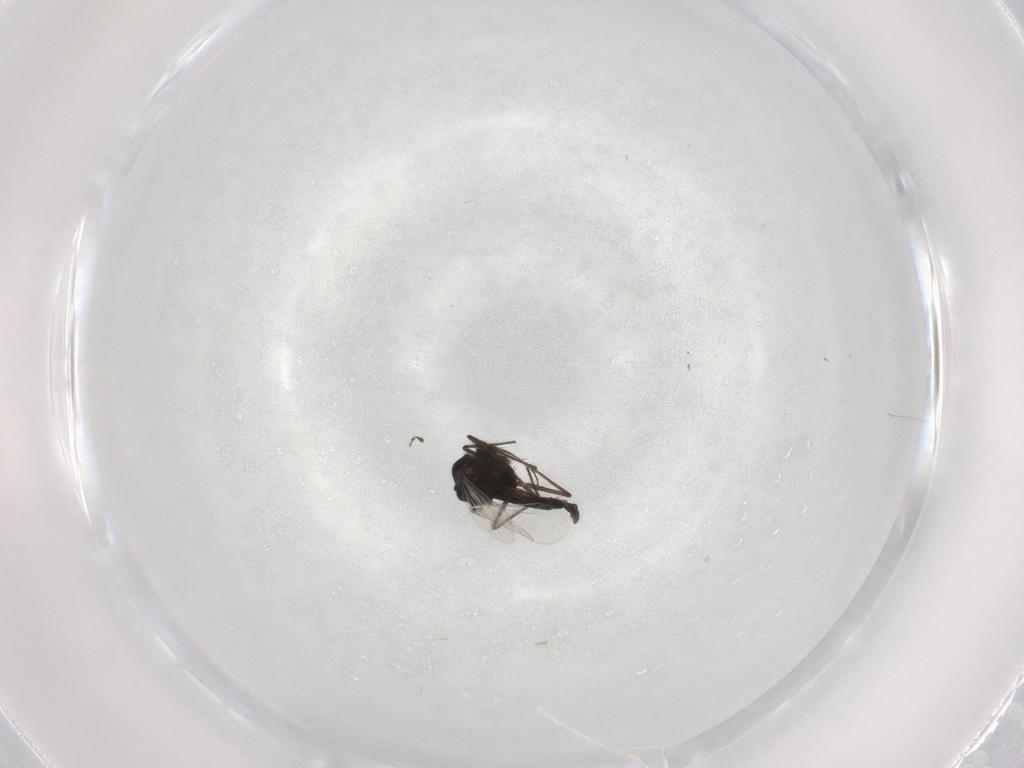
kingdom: Animalia
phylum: Arthropoda
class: Insecta
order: Diptera
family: Chironomidae
